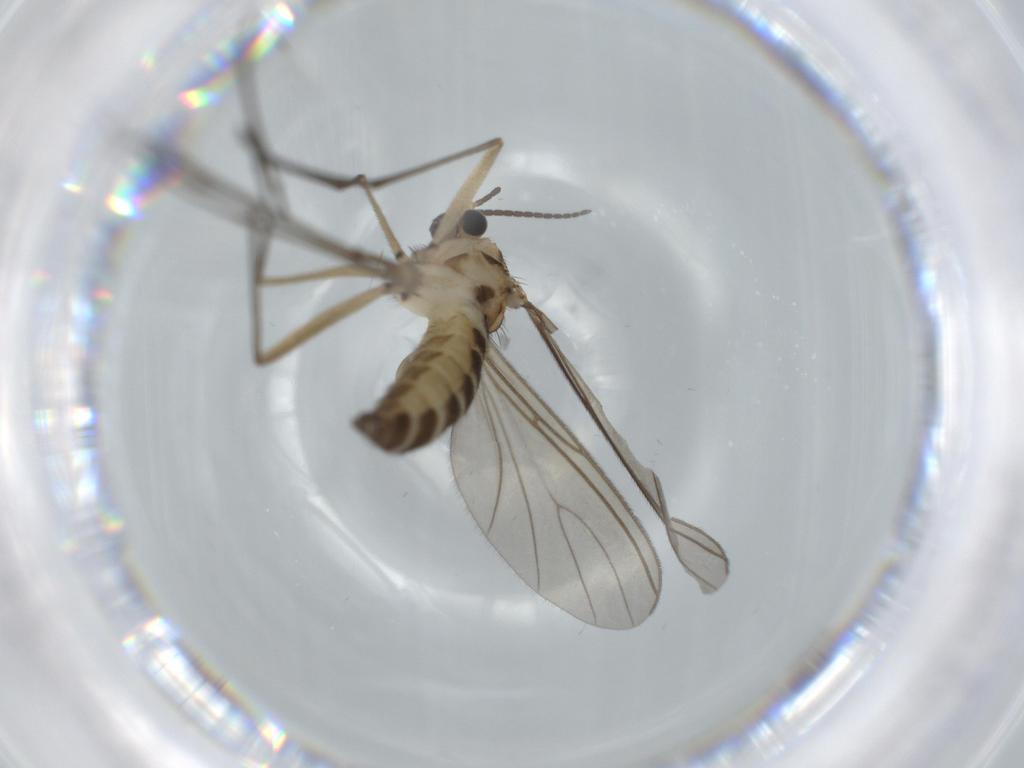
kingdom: Animalia
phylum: Arthropoda
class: Insecta
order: Diptera
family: Sciaridae
